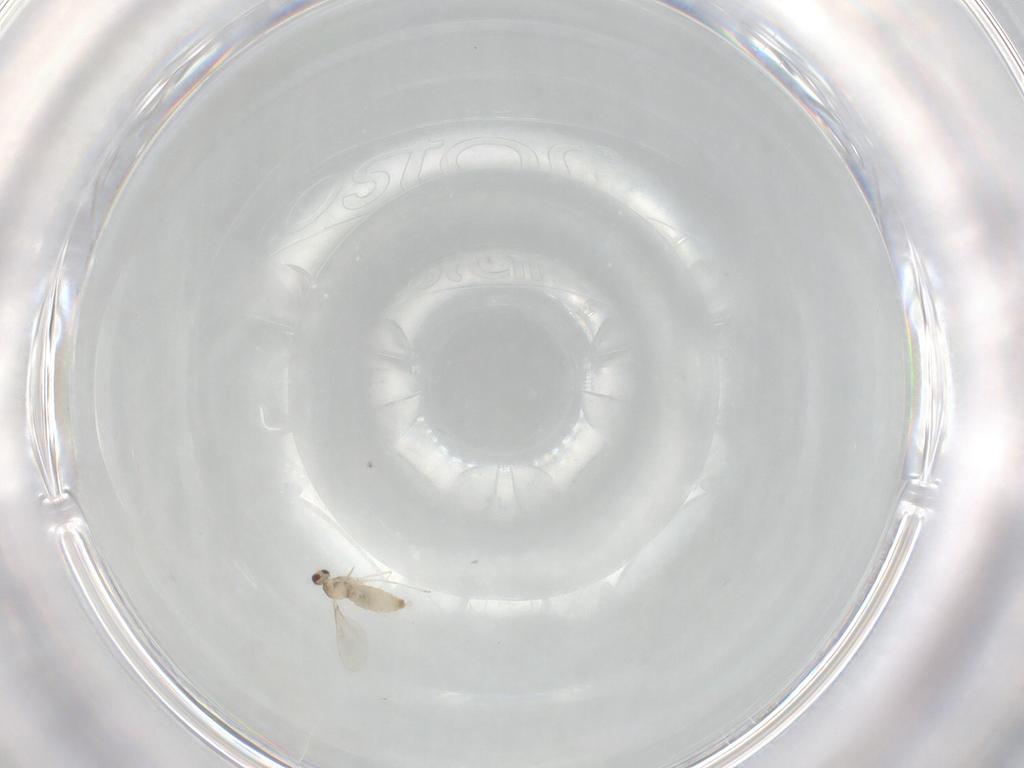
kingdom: Animalia
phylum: Arthropoda
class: Insecta
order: Diptera
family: Cecidomyiidae
